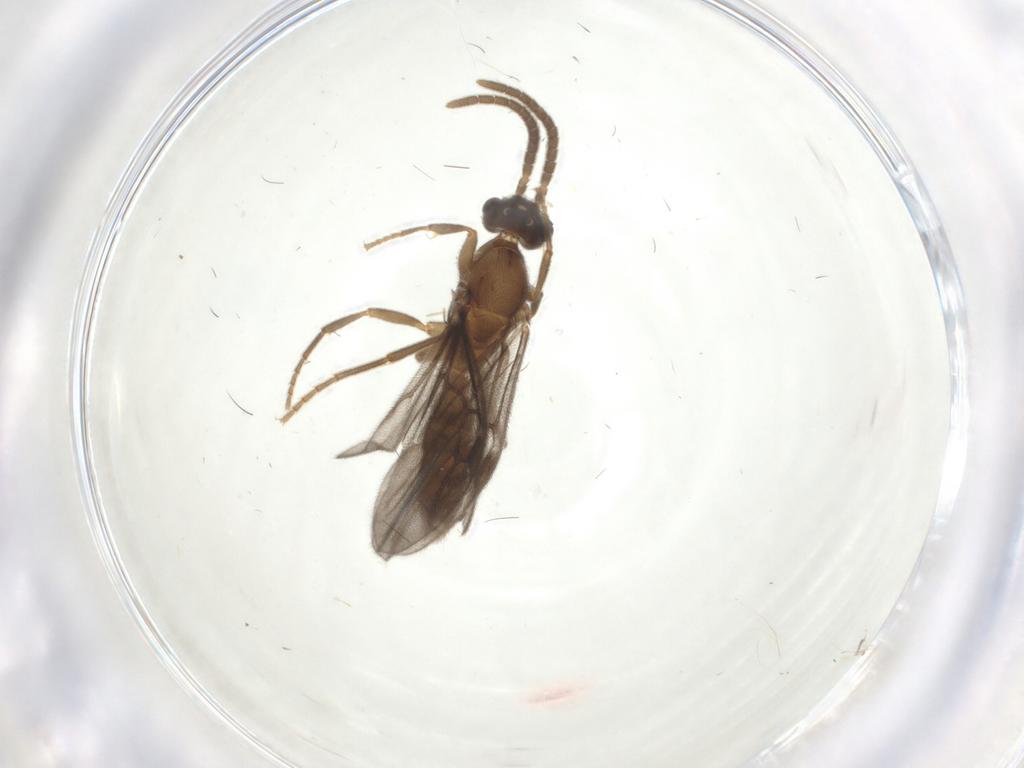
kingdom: Animalia
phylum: Arthropoda
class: Insecta
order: Hymenoptera
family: Formicidae
